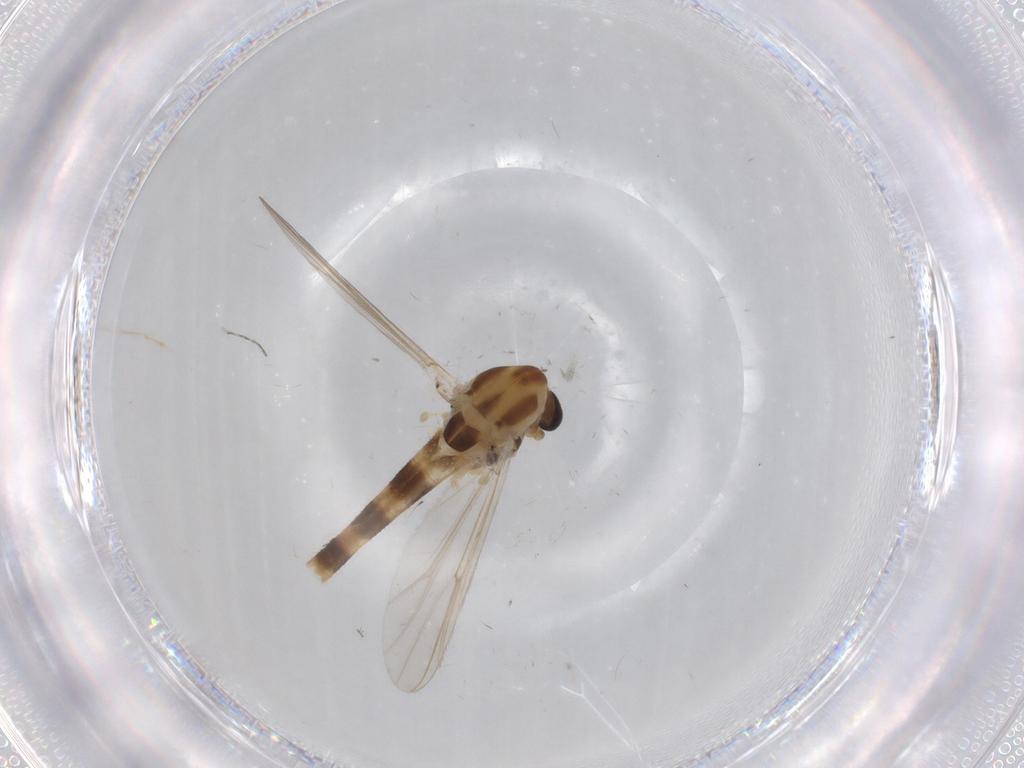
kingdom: Animalia
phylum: Arthropoda
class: Insecta
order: Diptera
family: Chironomidae
